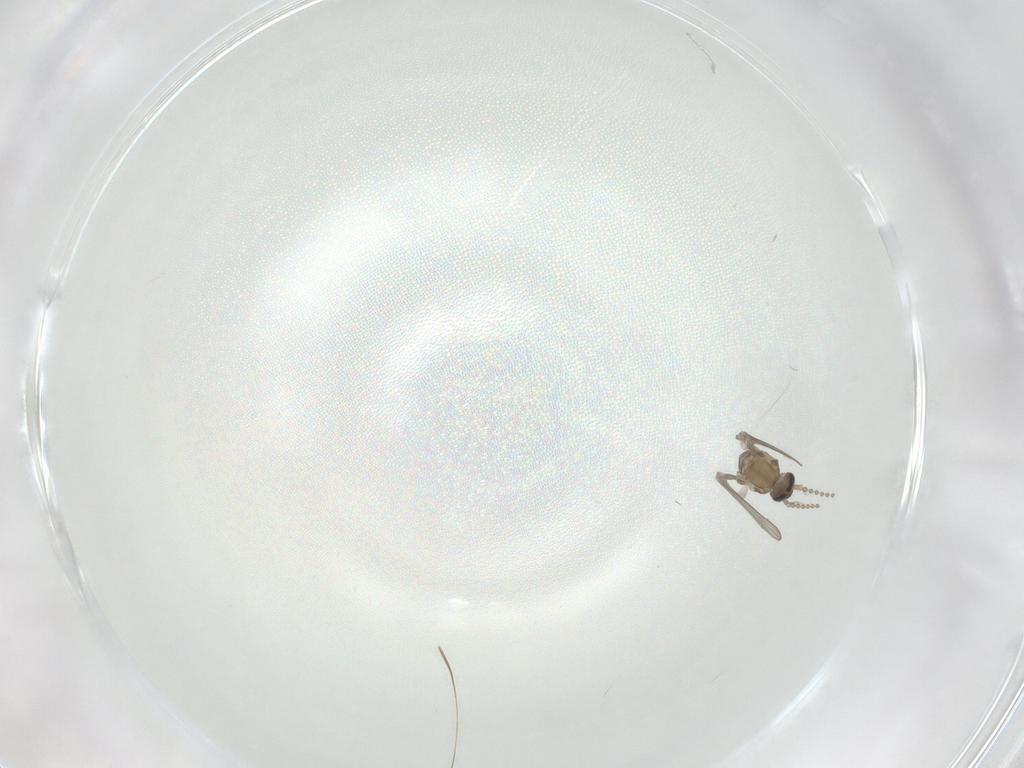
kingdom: Animalia
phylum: Arthropoda
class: Insecta
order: Diptera
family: Psychodidae
